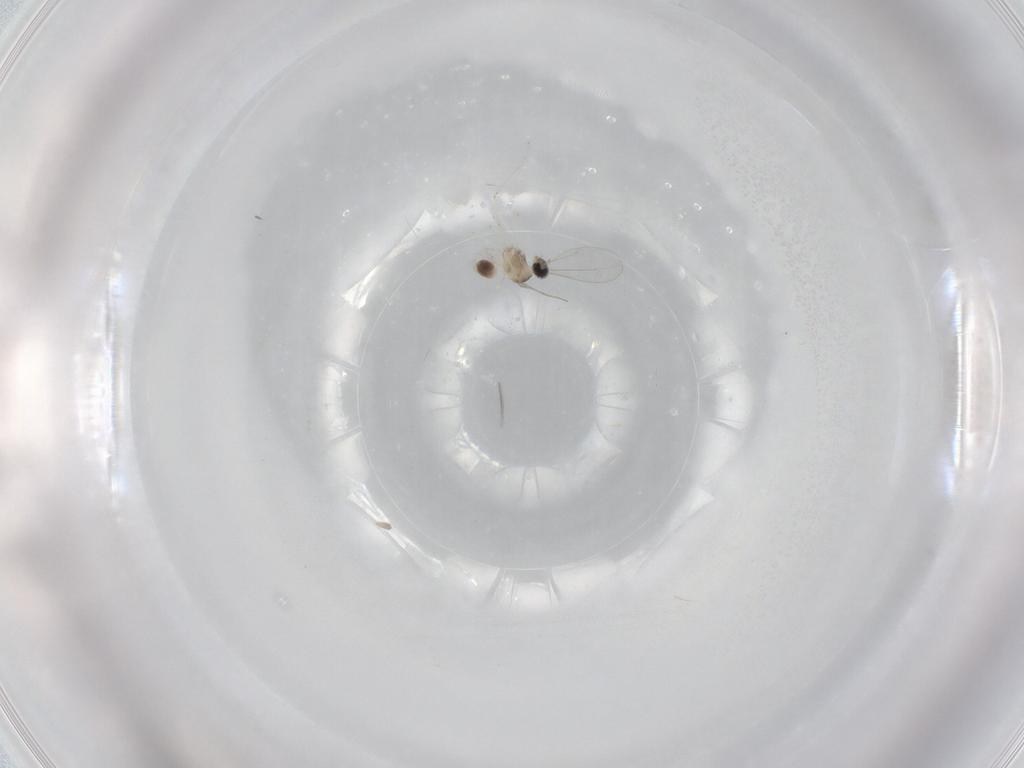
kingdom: Animalia
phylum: Arthropoda
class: Insecta
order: Diptera
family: Cecidomyiidae
